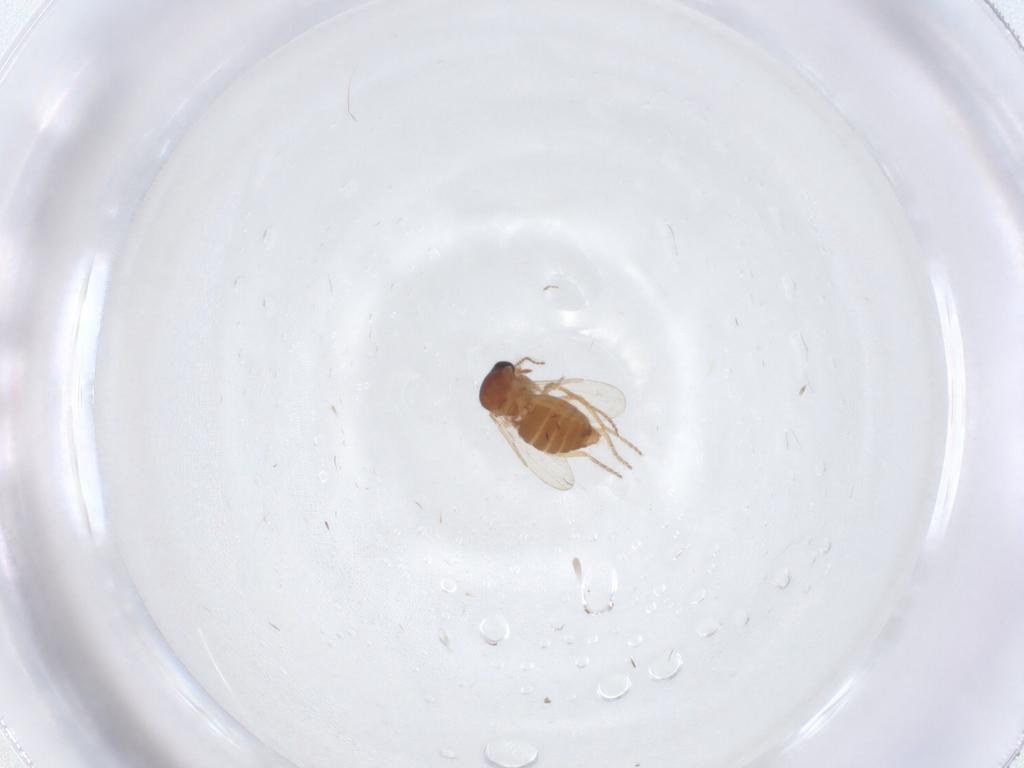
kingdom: Animalia
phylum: Arthropoda
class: Insecta
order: Diptera
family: Ceratopogonidae
